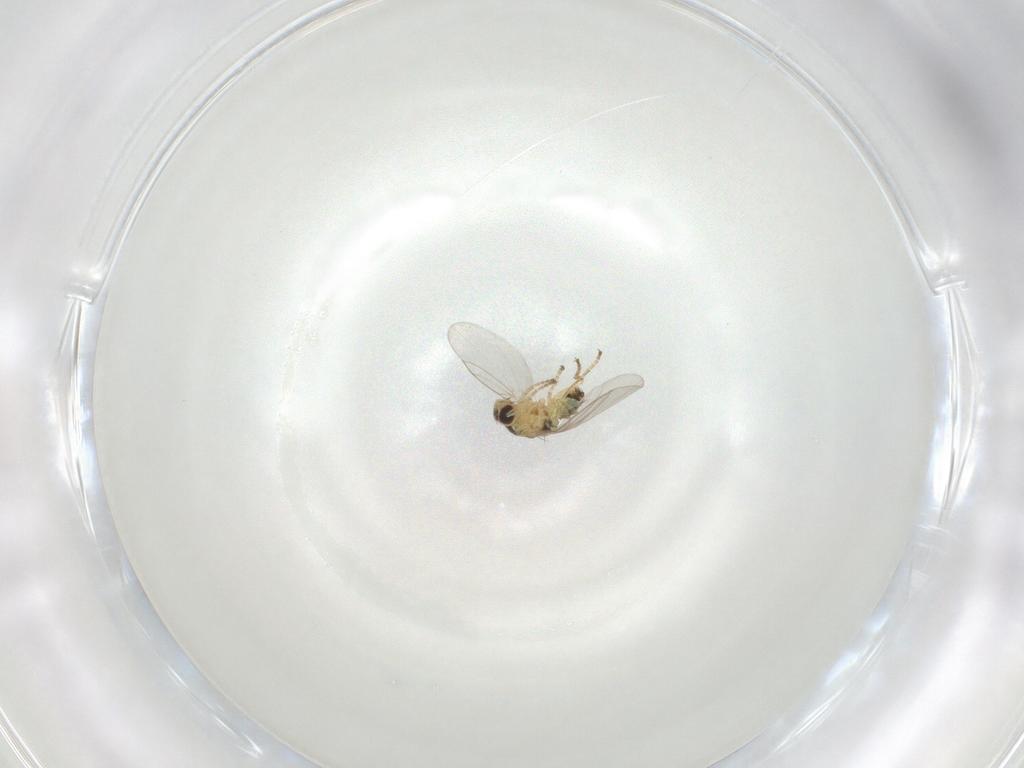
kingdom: Animalia
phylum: Arthropoda
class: Insecta
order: Diptera
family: Agromyzidae
